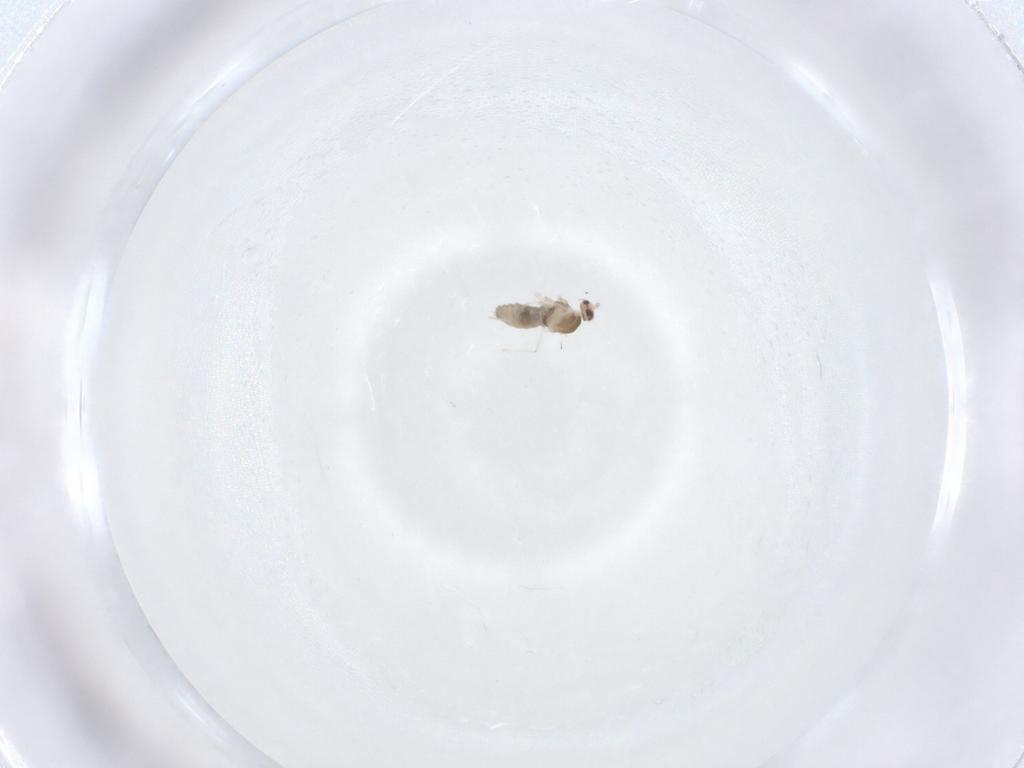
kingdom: Animalia
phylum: Arthropoda
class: Insecta
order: Diptera
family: Cecidomyiidae
